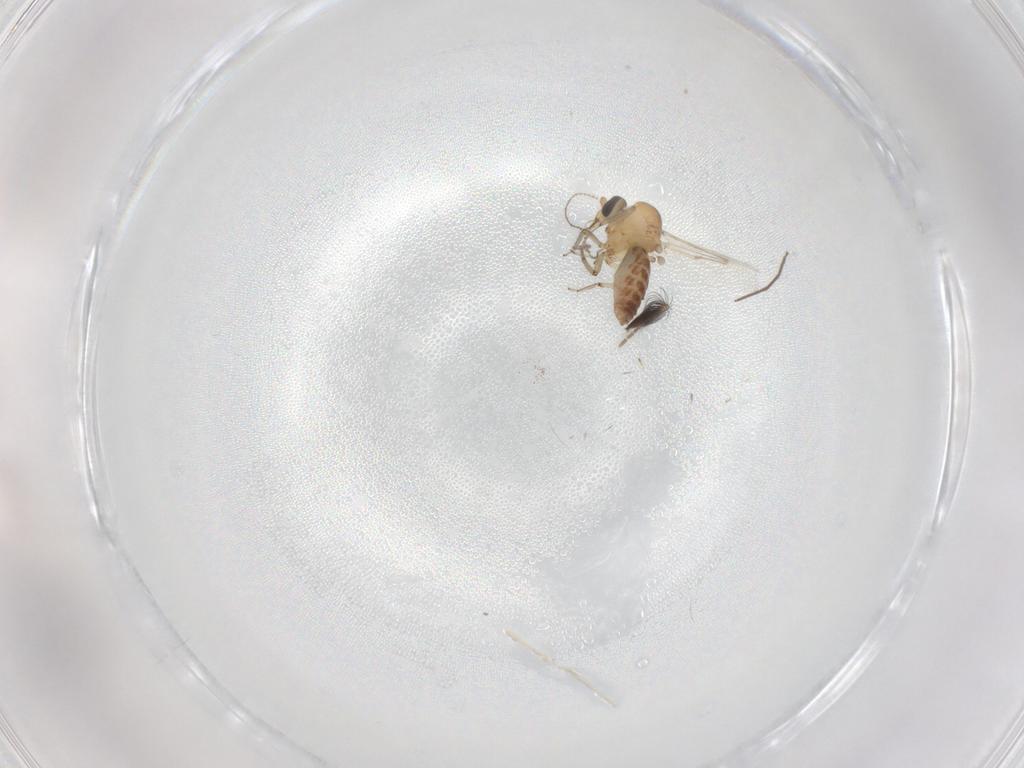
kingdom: Animalia
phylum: Arthropoda
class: Insecta
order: Diptera
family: Ceratopogonidae
